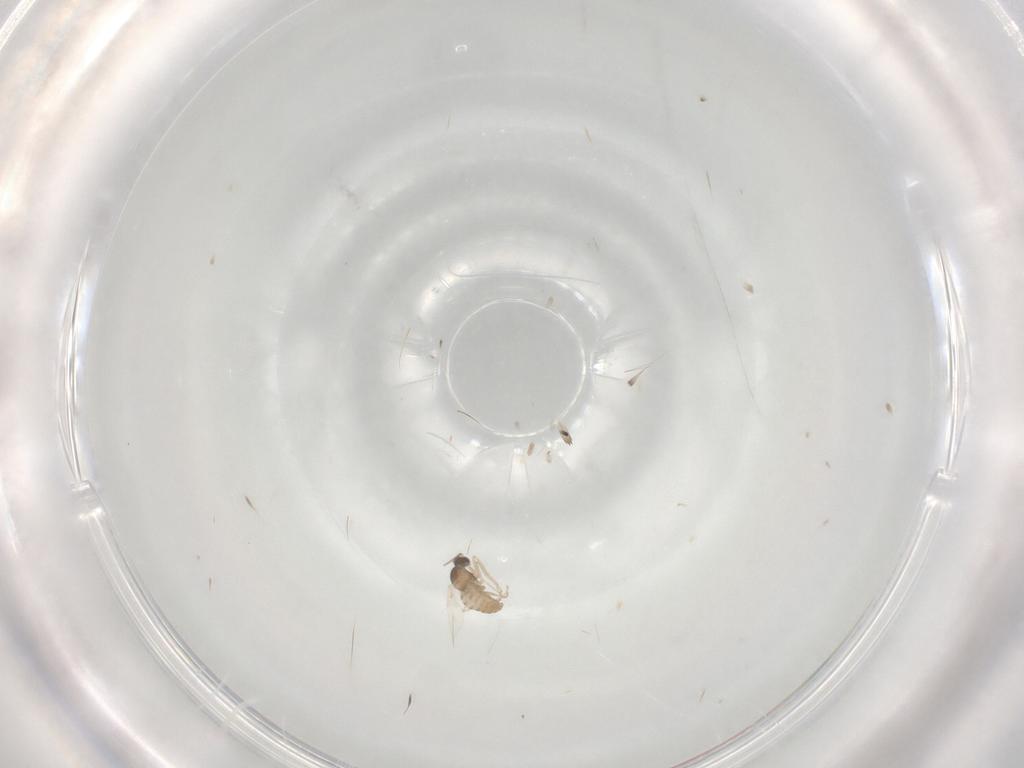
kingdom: Animalia
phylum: Arthropoda
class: Insecta
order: Diptera
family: Cecidomyiidae
